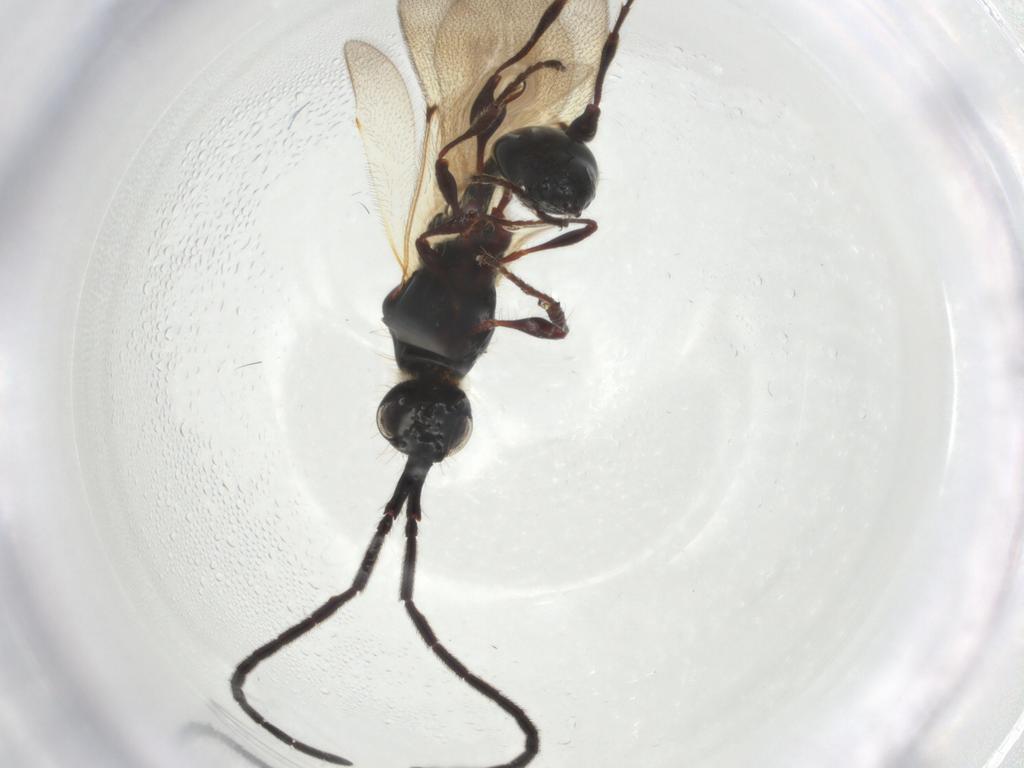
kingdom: Animalia
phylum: Arthropoda
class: Insecta
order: Hymenoptera
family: Diapriidae
